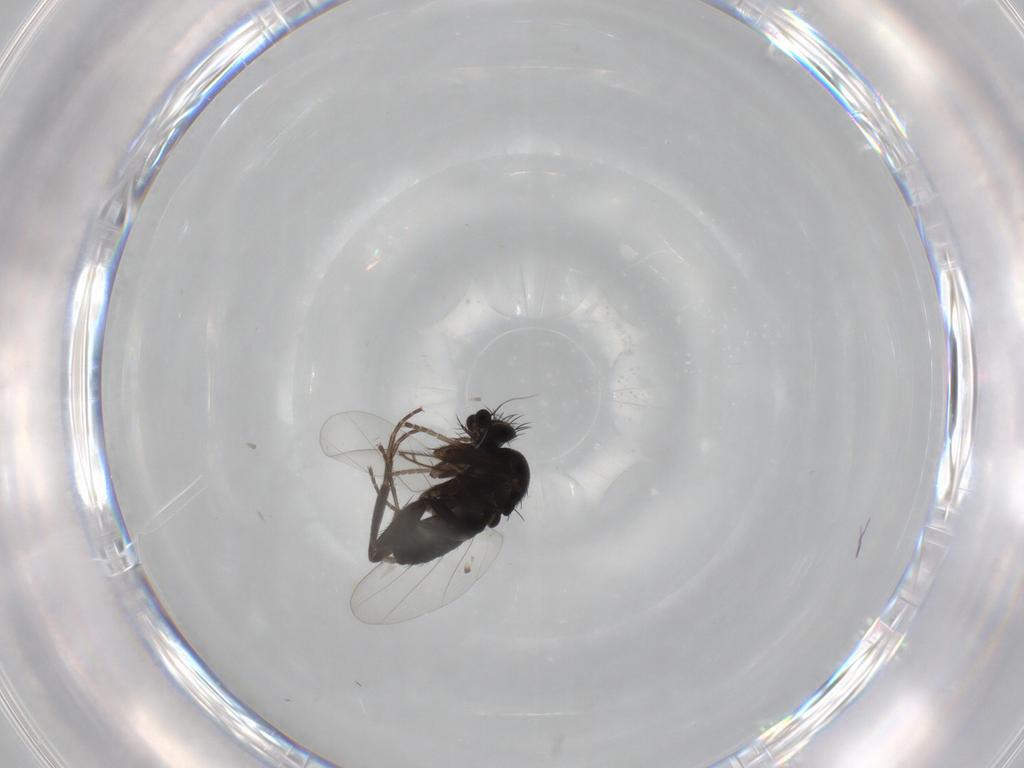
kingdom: Animalia
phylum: Arthropoda
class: Insecta
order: Diptera
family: Phoridae
